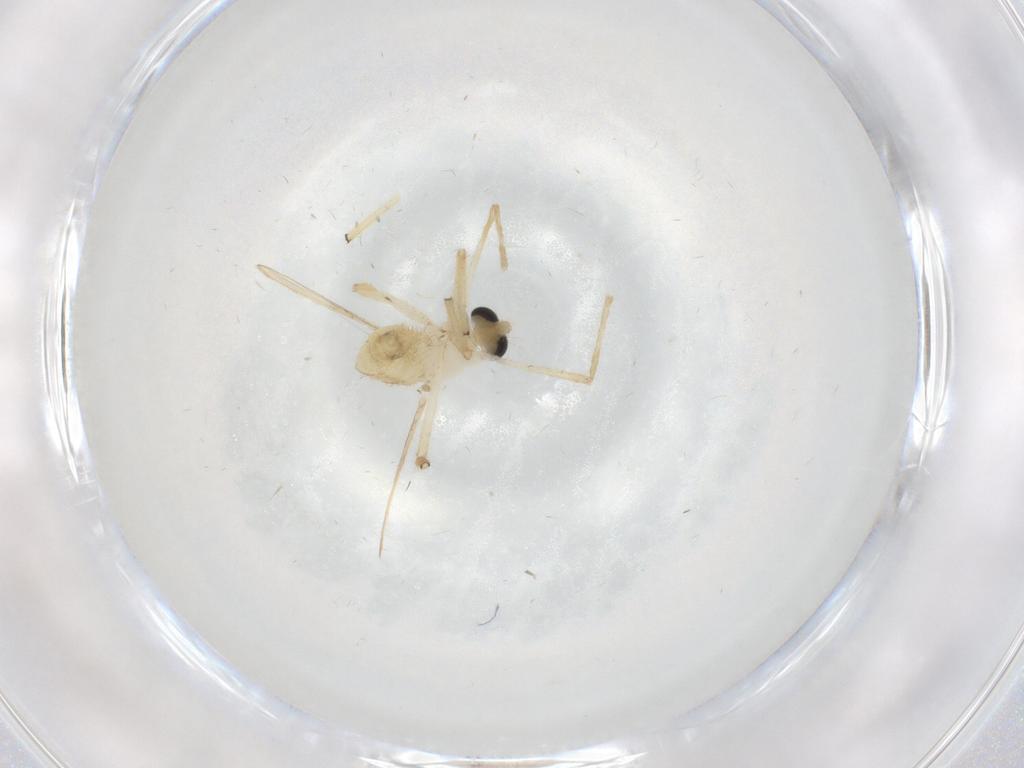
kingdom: Animalia
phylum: Arthropoda
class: Insecta
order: Diptera
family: Chironomidae
